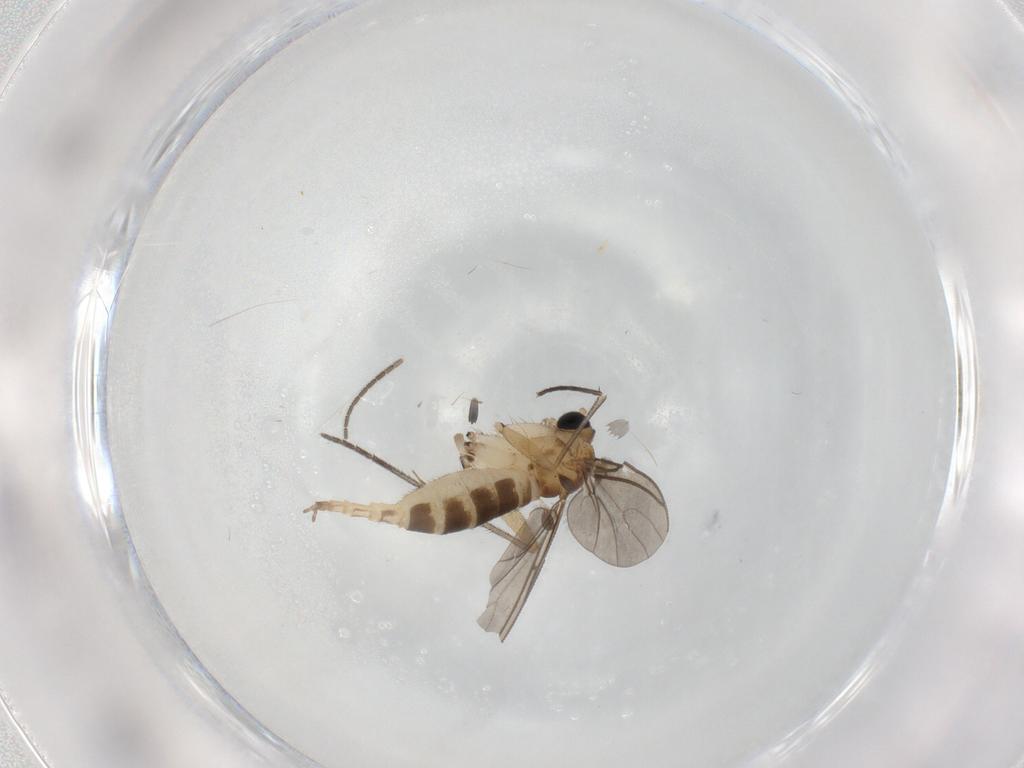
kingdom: Animalia
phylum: Arthropoda
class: Insecta
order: Diptera
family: Sciaridae
